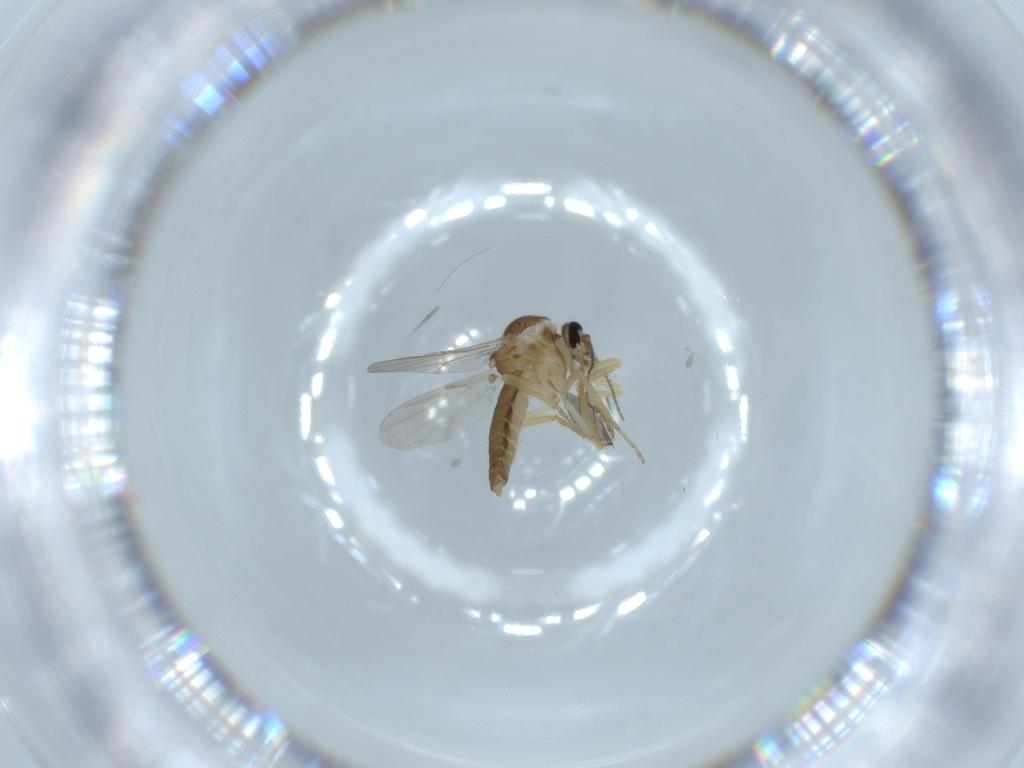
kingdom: Animalia
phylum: Arthropoda
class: Insecta
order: Diptera
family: Ceratopogonidae
